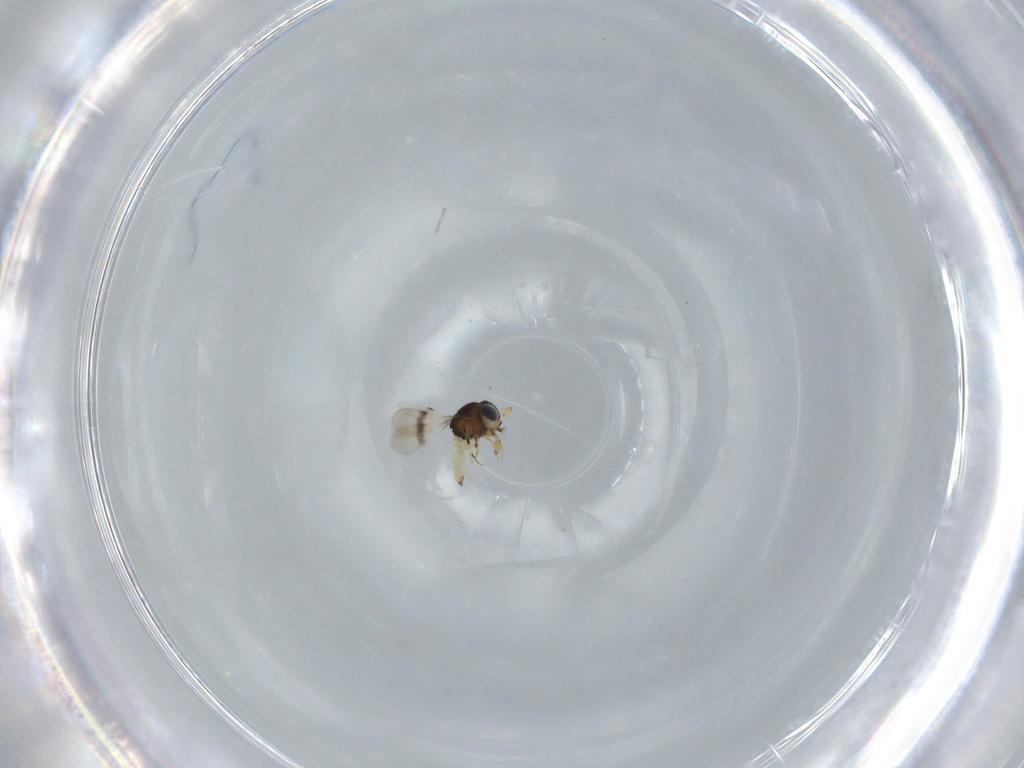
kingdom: Animalia
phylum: Arthropoda
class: Insecta
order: Hymenoptera
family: Scelionidae
